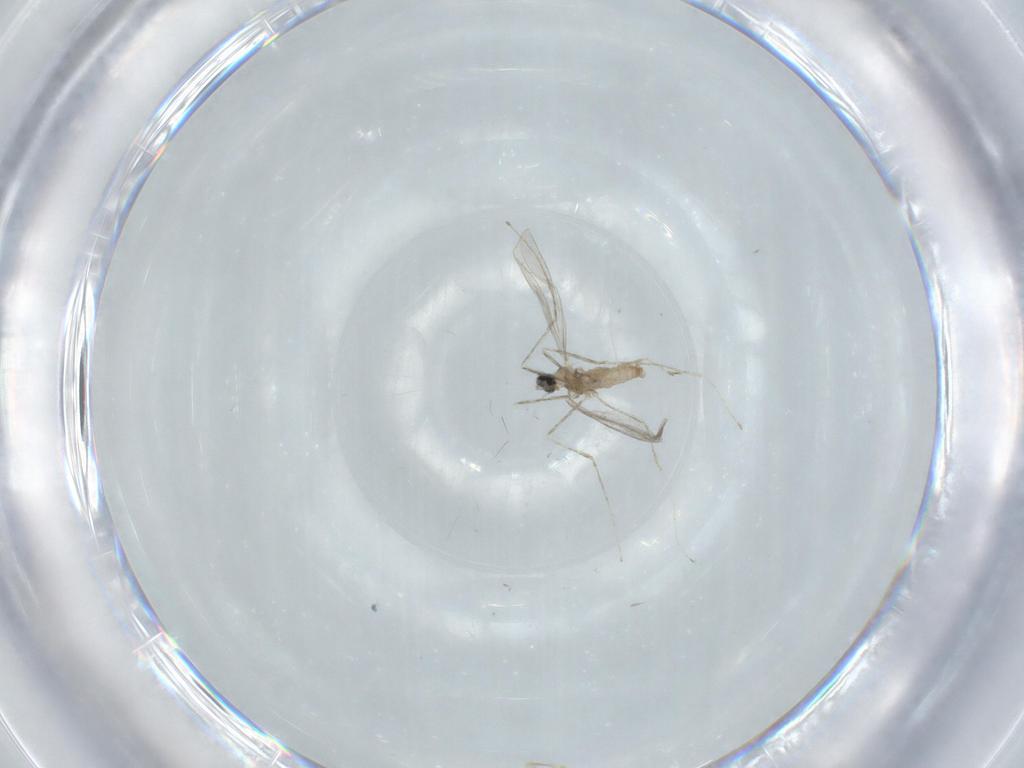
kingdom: Animalia
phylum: Arthropoda
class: Insecta
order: Diptera
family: Cecidomyiidae
